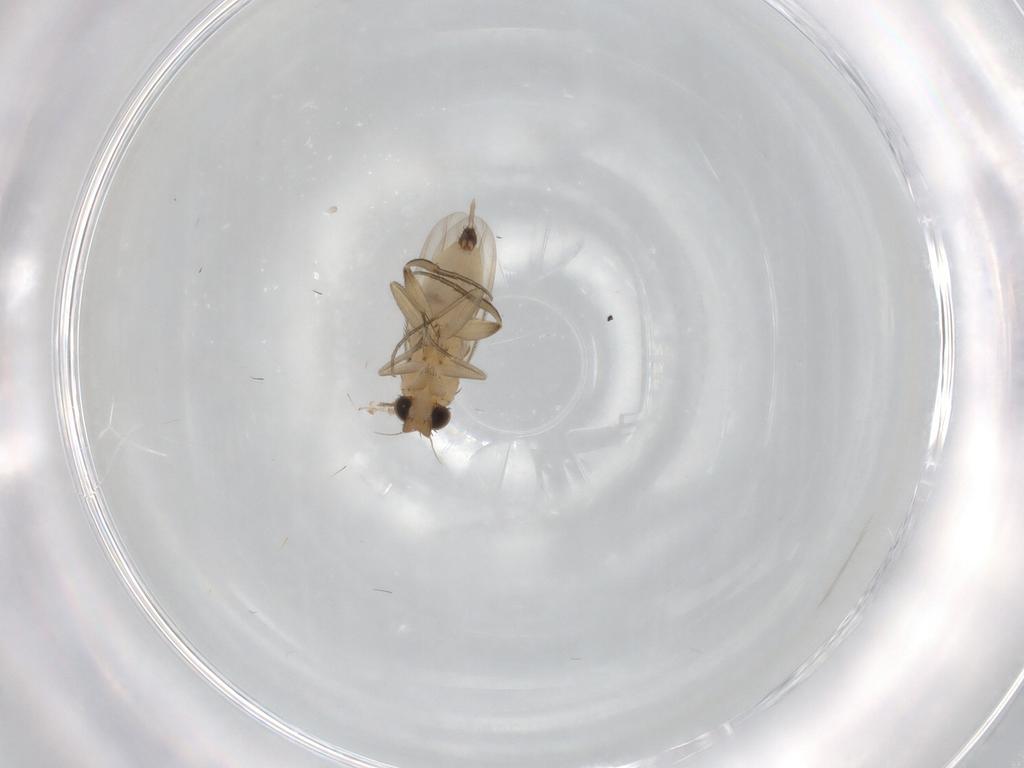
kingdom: Animalia
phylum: Arthropoda
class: Insecta
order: Diptera
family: Phoridae
